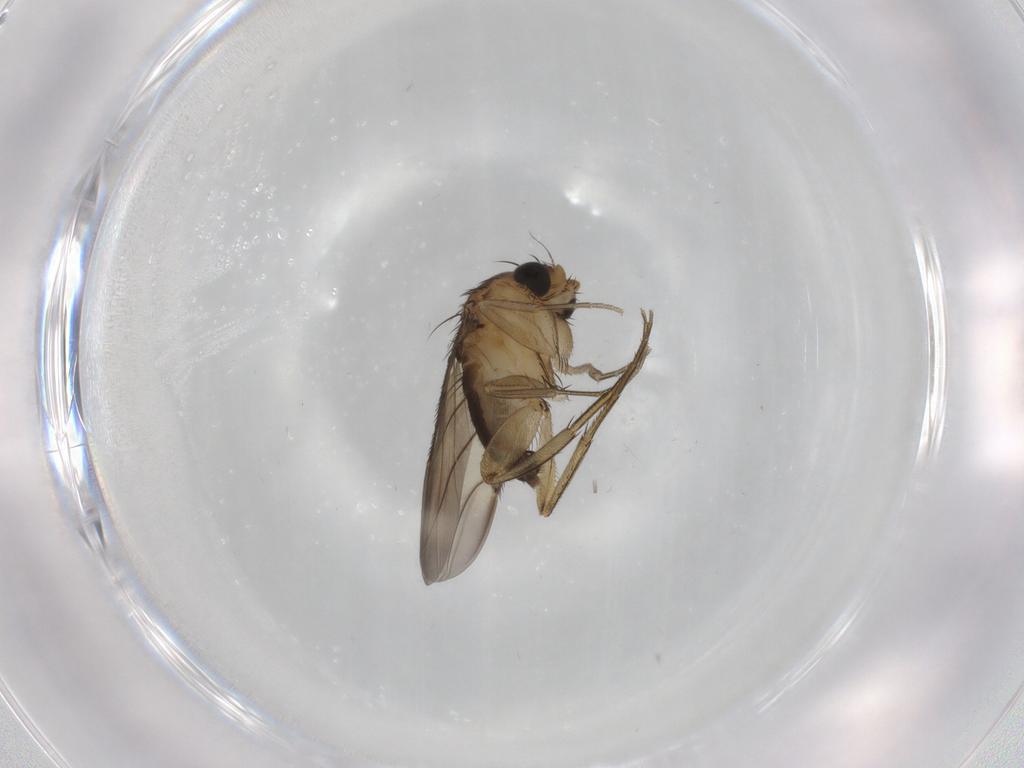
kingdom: Animalia
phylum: Arthropoda
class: Insecta
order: Diptera
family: Phoridae
